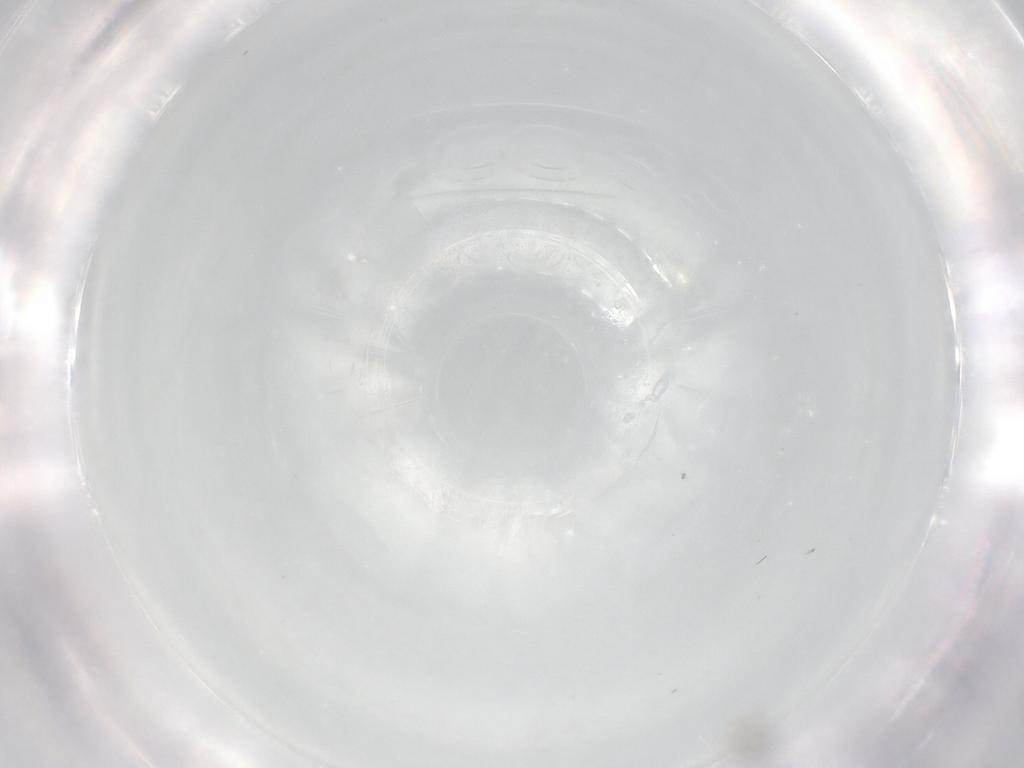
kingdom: Animalia
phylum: Arthropoda
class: Insecta
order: Diptera
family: Cecidomyiidae
